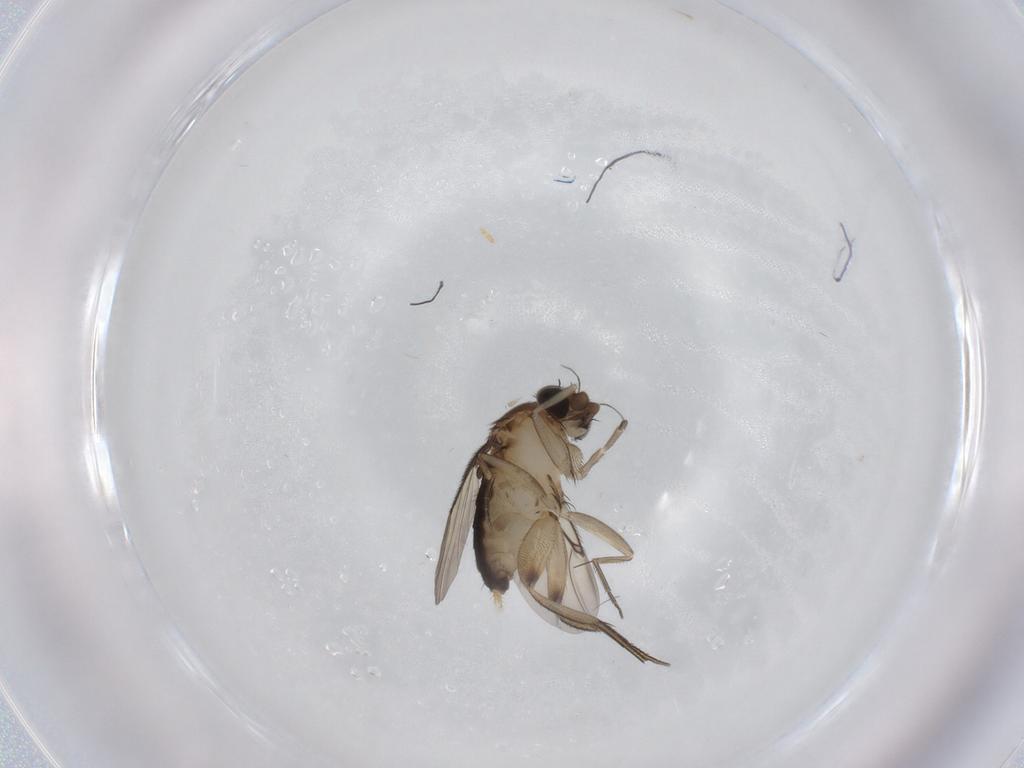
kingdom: Animalia
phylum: Arthropoda
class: Insecta
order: Diptera
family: Phoridae
